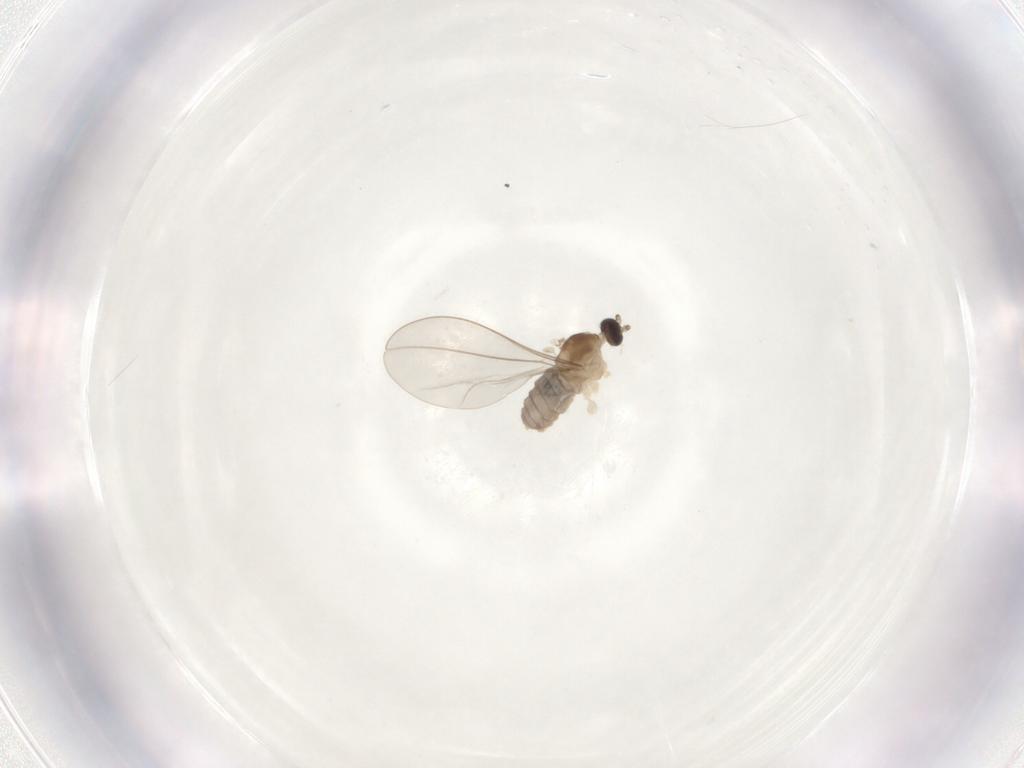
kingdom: Animalia
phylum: Arthropoda
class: Insecta
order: Diptera
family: Cecidomyiidae
